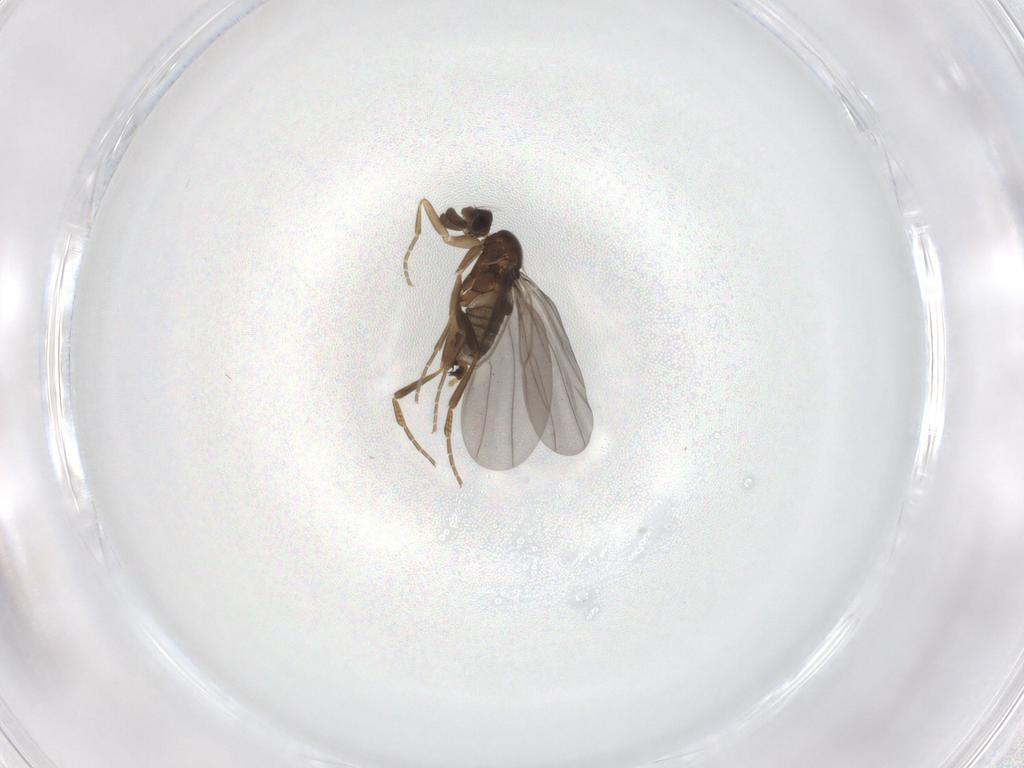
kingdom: Animalia
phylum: Arthropoda
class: Insecta
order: Diptera
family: Phoridae
